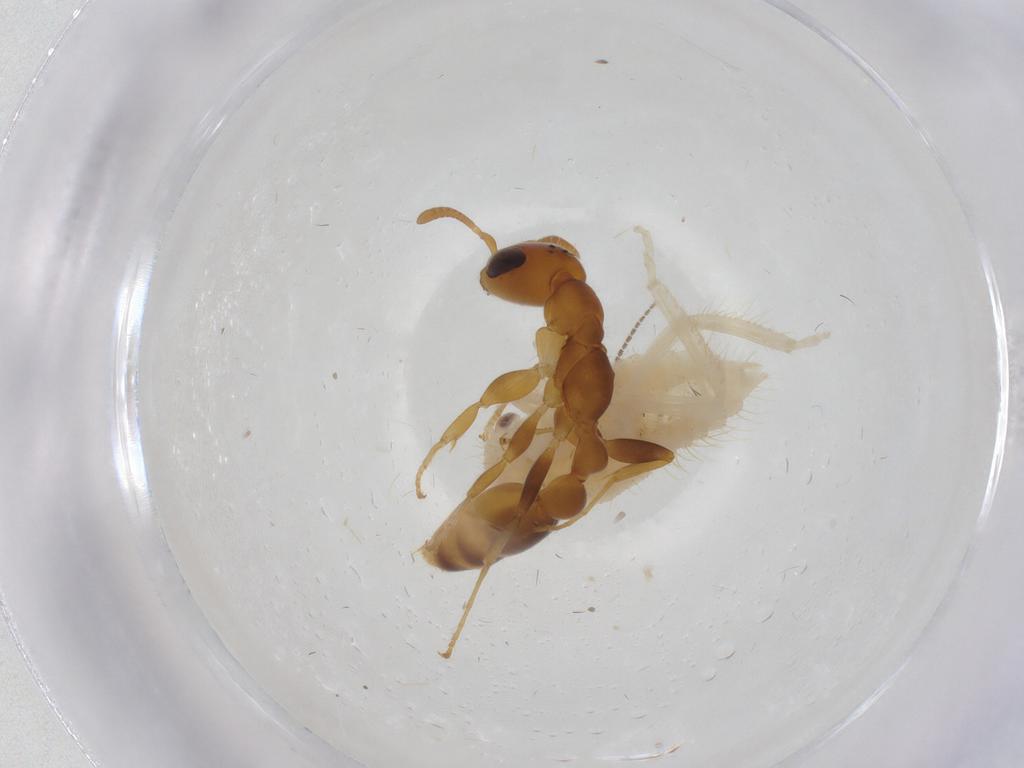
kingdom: Animalia
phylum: Arthropoda
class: Insecta
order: Hymenoptera
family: Formicidae
